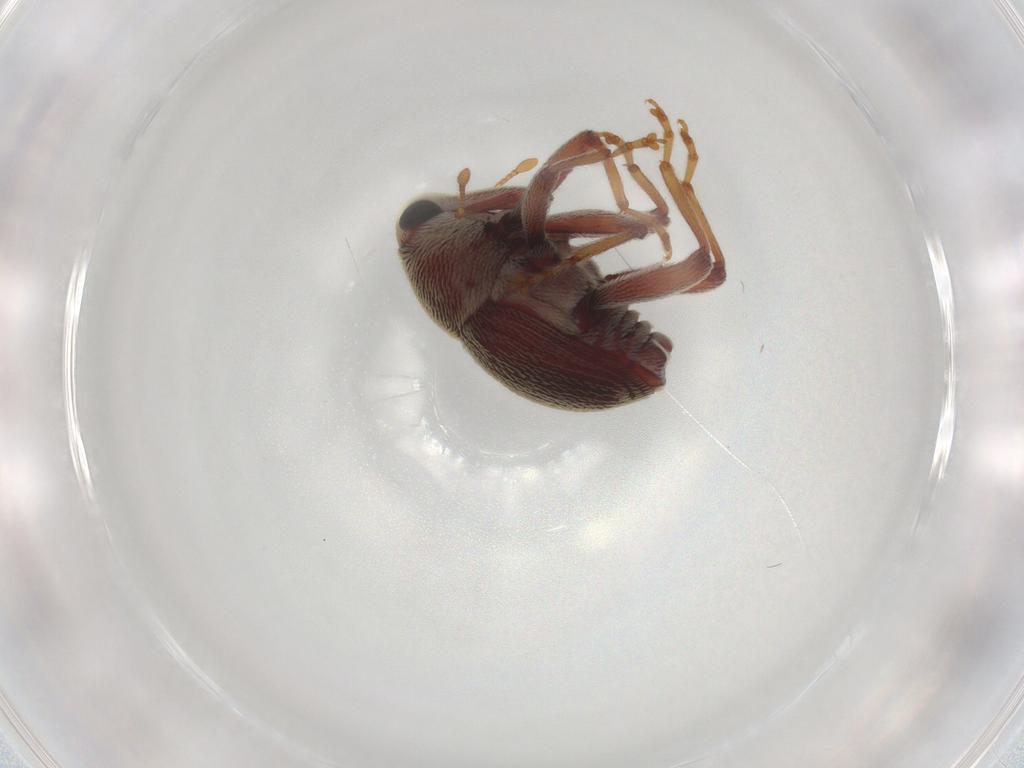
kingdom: Animalia
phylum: Arthropoda
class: Insecta
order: Coleoptera
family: Curculionidae
